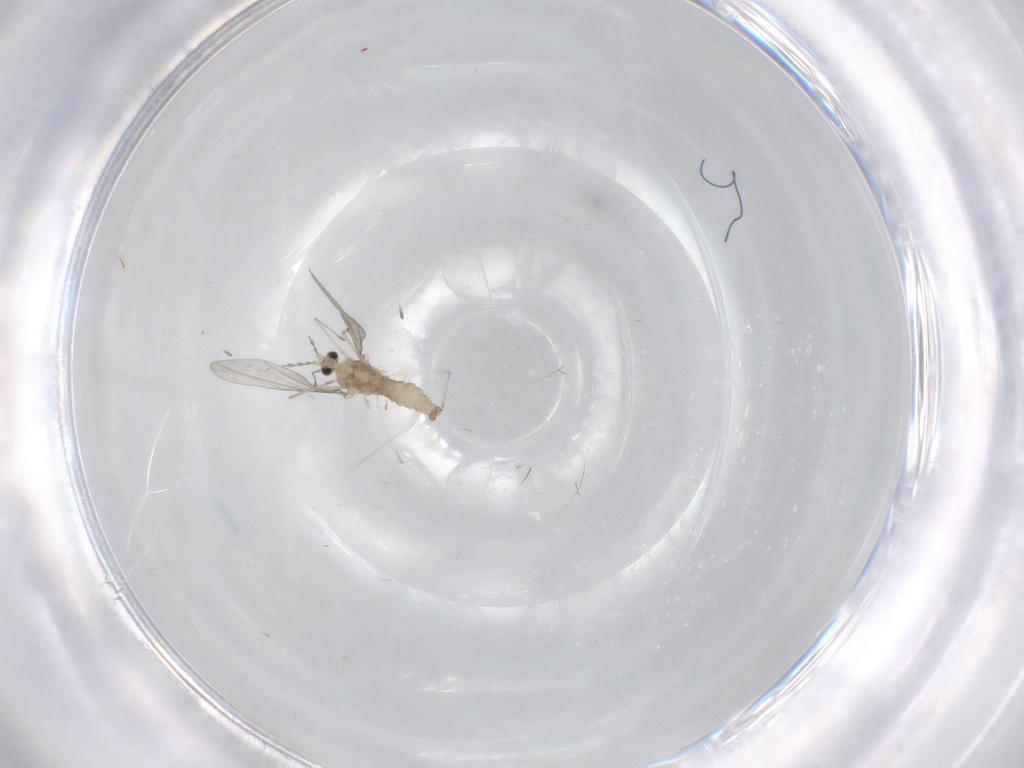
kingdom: Animalia
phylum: Arthropoda
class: Insecta
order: Diptera
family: Cecidomyiidae
